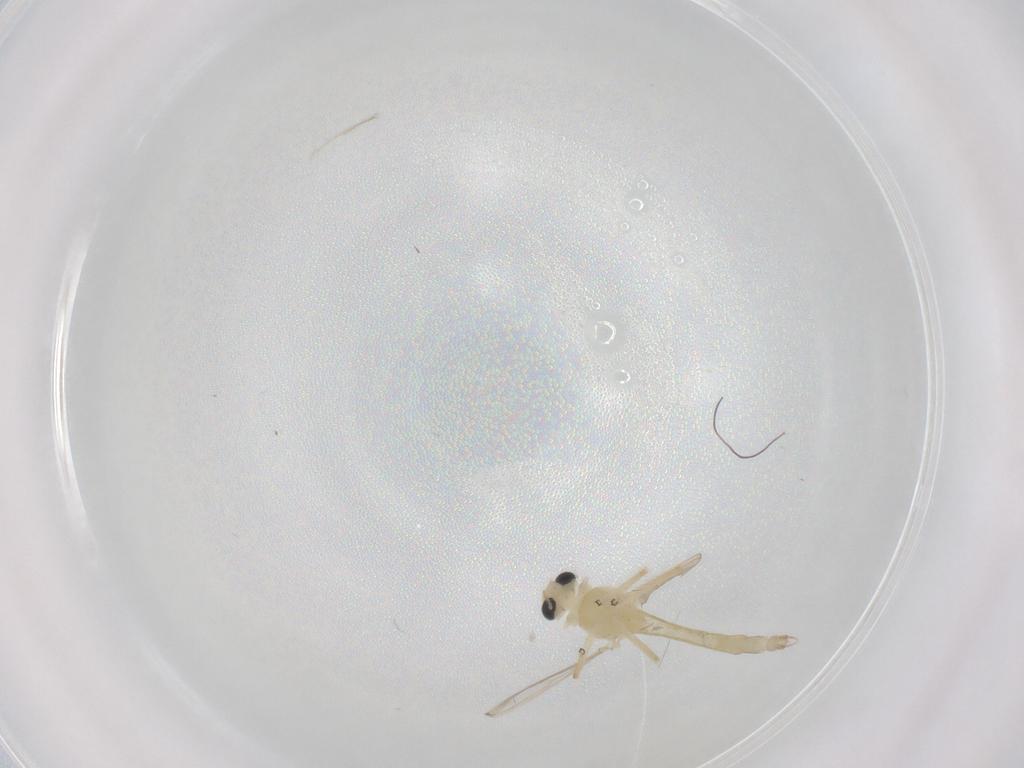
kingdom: Animalia
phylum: Arthropoda
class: Insecta
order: Diptera
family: Chironomidae
